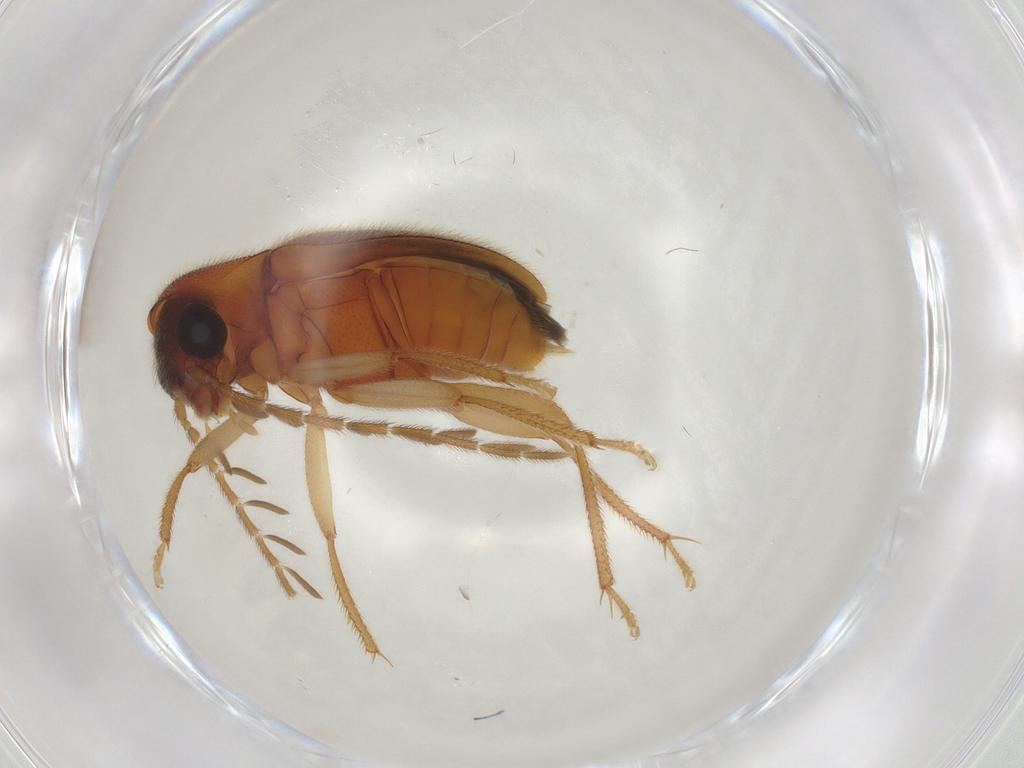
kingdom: Animalia
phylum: Arthropoda
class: Insecta
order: Coleoptera
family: Ptilodactylidae
